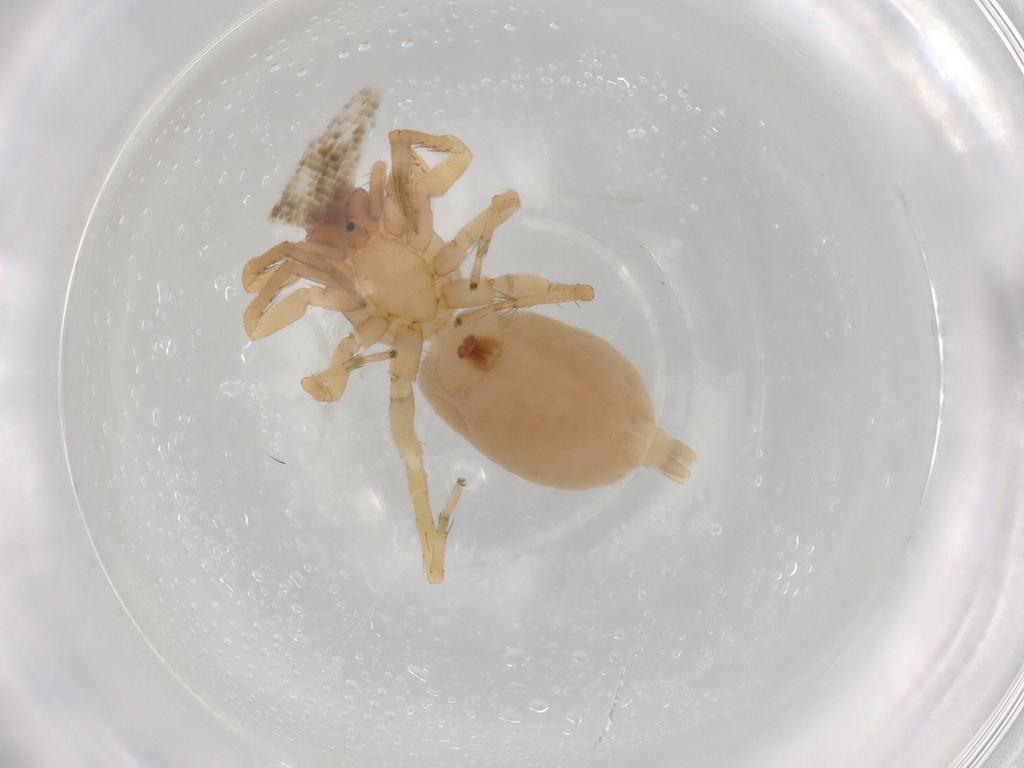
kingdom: Animalia
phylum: Arthropoda
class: Arachnida
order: Araneae
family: Clubionidae
